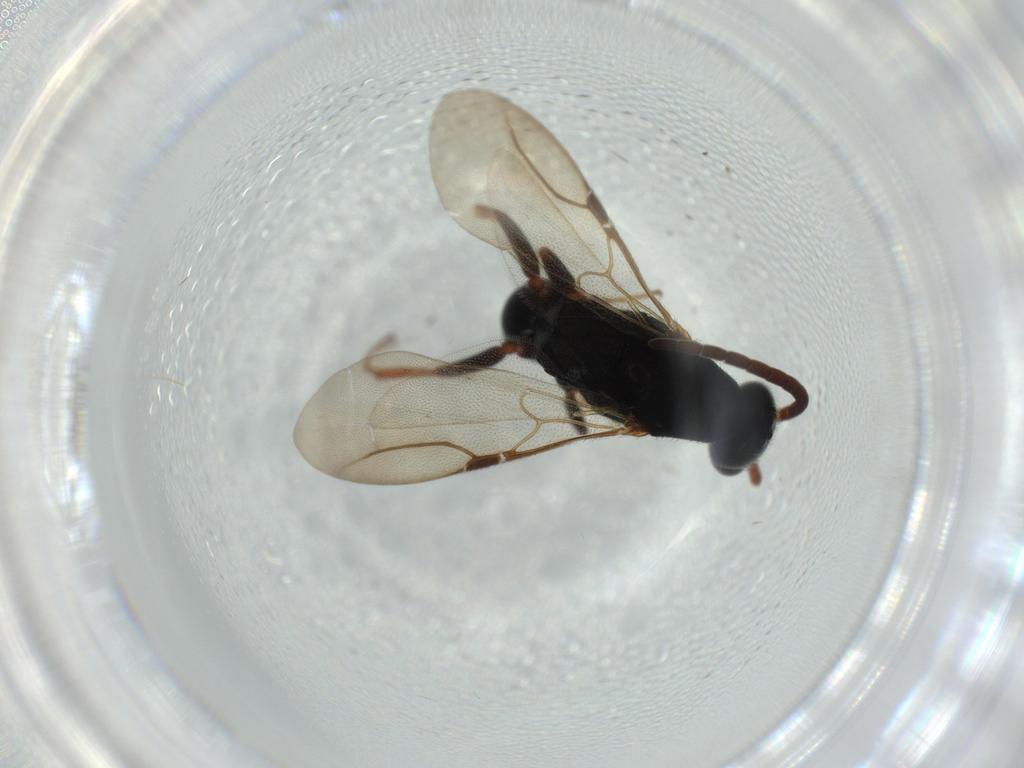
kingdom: Animalia
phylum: Arthropoda
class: Insecta
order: Hymenoptera
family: Bethylidae
